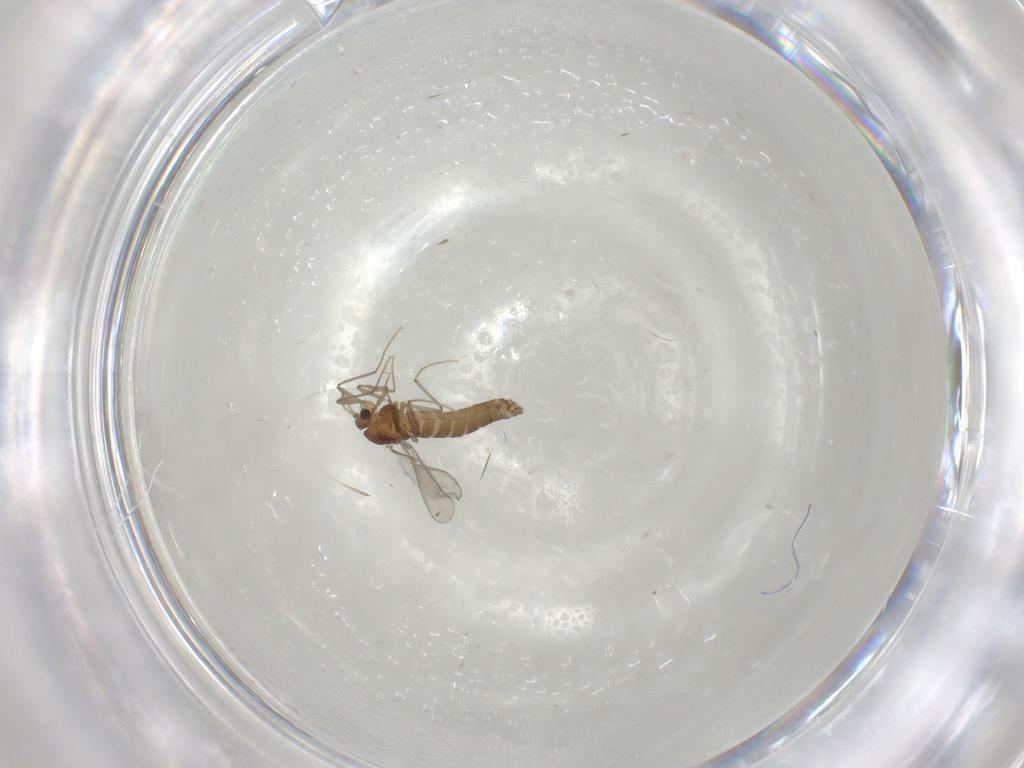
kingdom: Animalia
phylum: Arthropoda
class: Insecta
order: Diptera
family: Chironomidae
